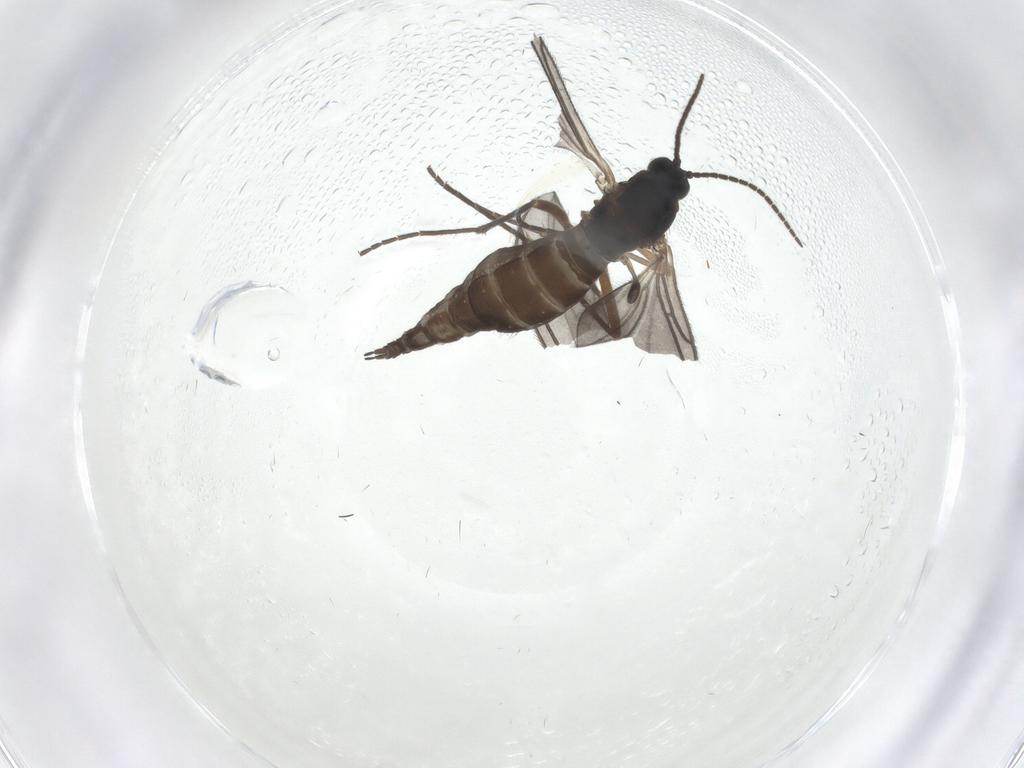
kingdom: Animalia
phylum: Arthropoda
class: Insecta
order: Diptera
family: Sciaridae
